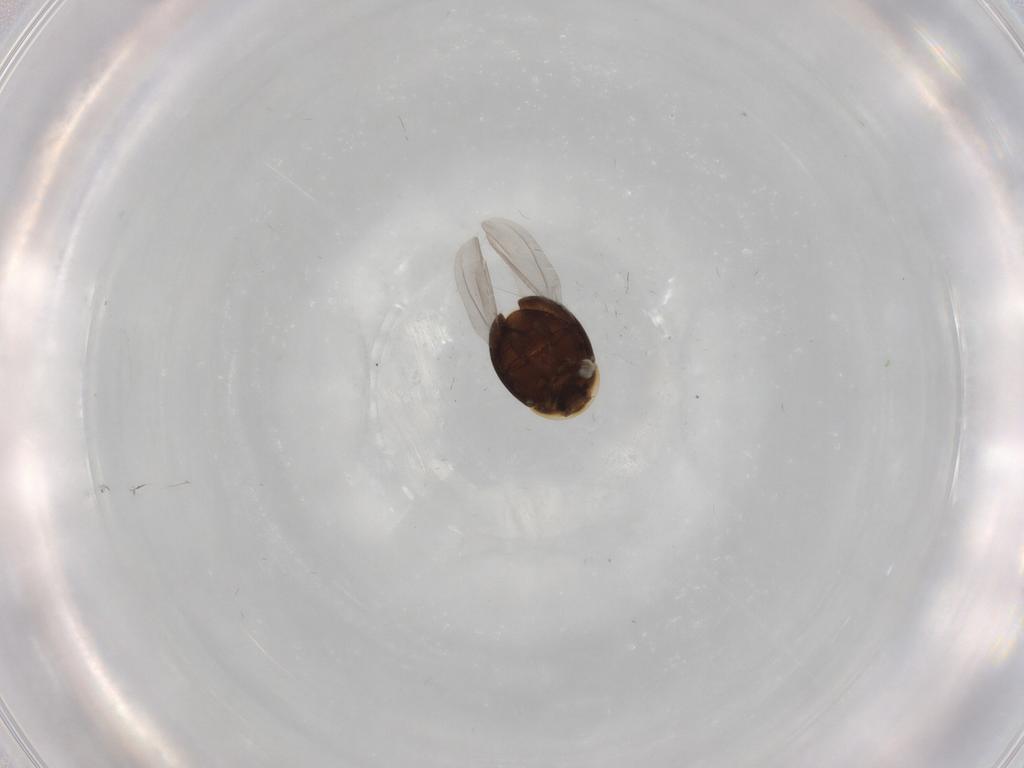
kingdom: Animalia
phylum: Arthropoda
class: Insecta
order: Coleoptera
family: Corylophidae
